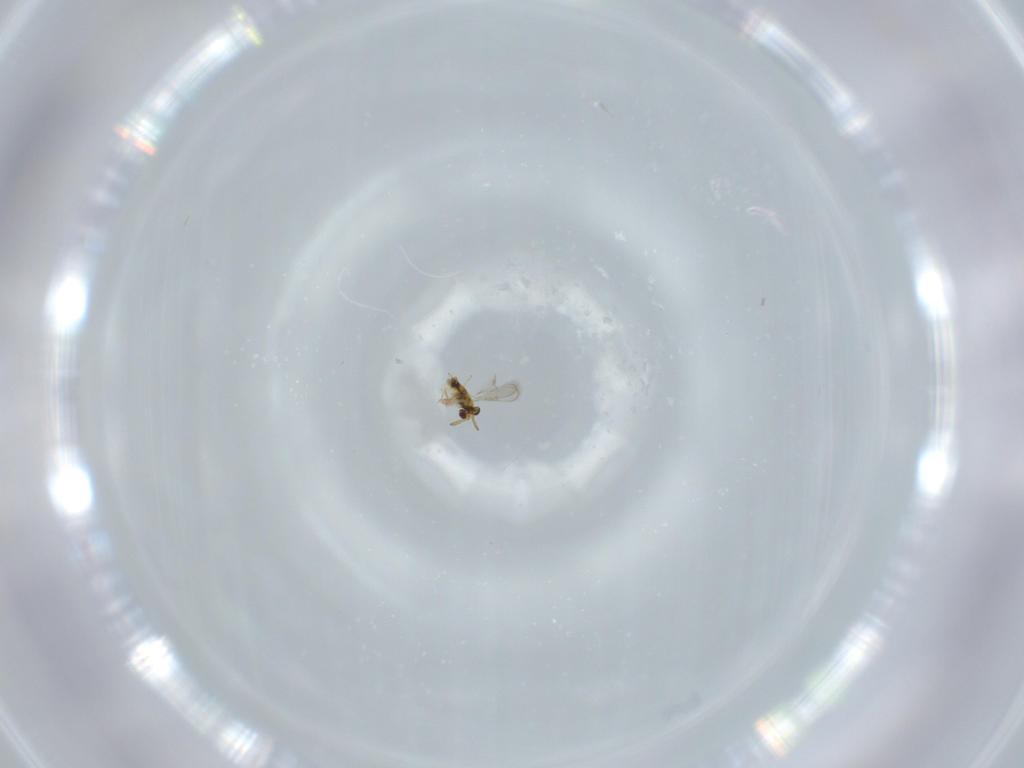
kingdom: Animalia
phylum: Arthropoda
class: Insecta
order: Hymenoptera
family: Aphelinidae
